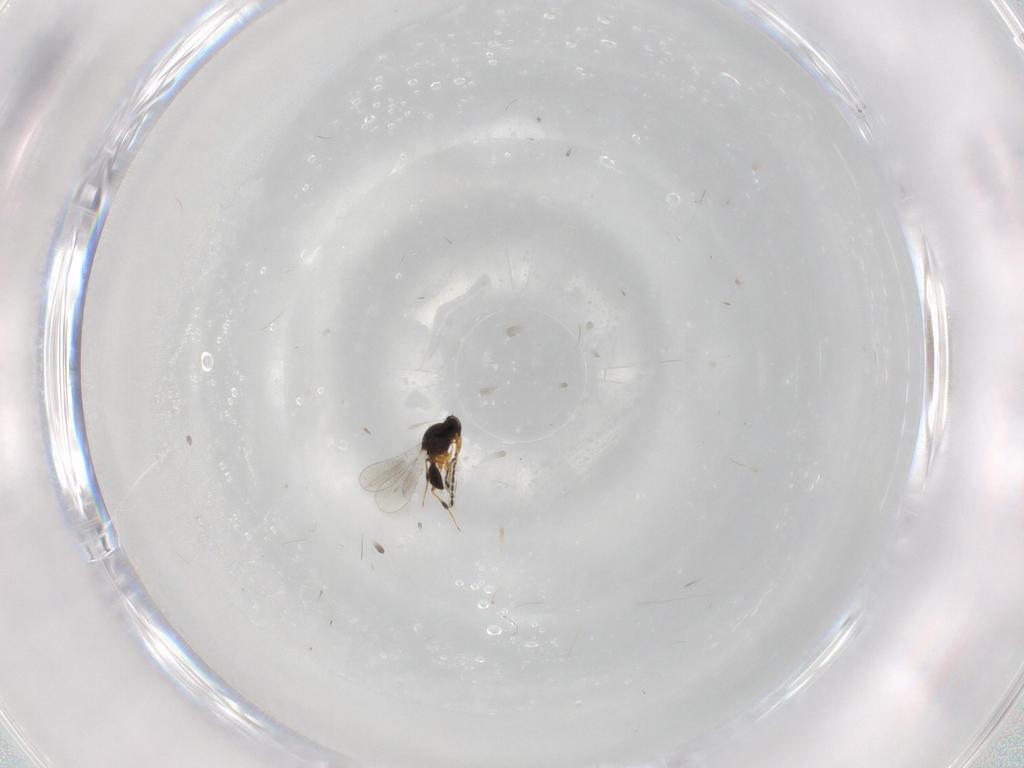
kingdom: Animalia
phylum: Arthropoda
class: Insecta
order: Hymenoptera
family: Platygastridae
